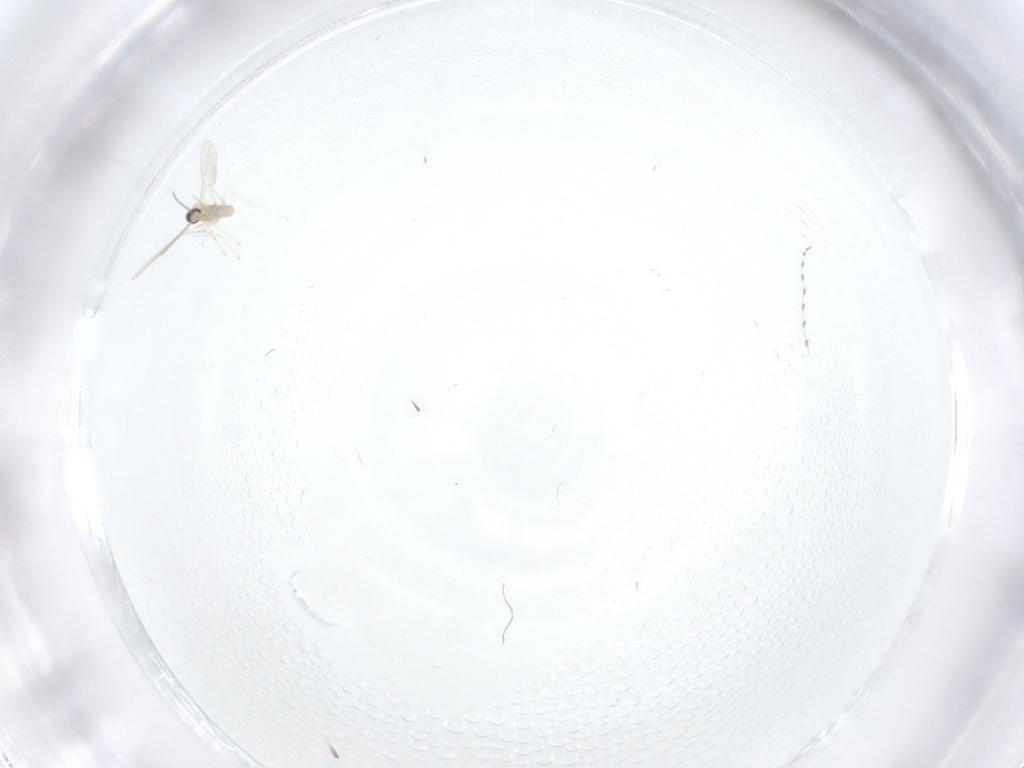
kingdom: Animalia
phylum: Arthropoda
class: Insecta
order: Diptera
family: Cecidomyiidae
